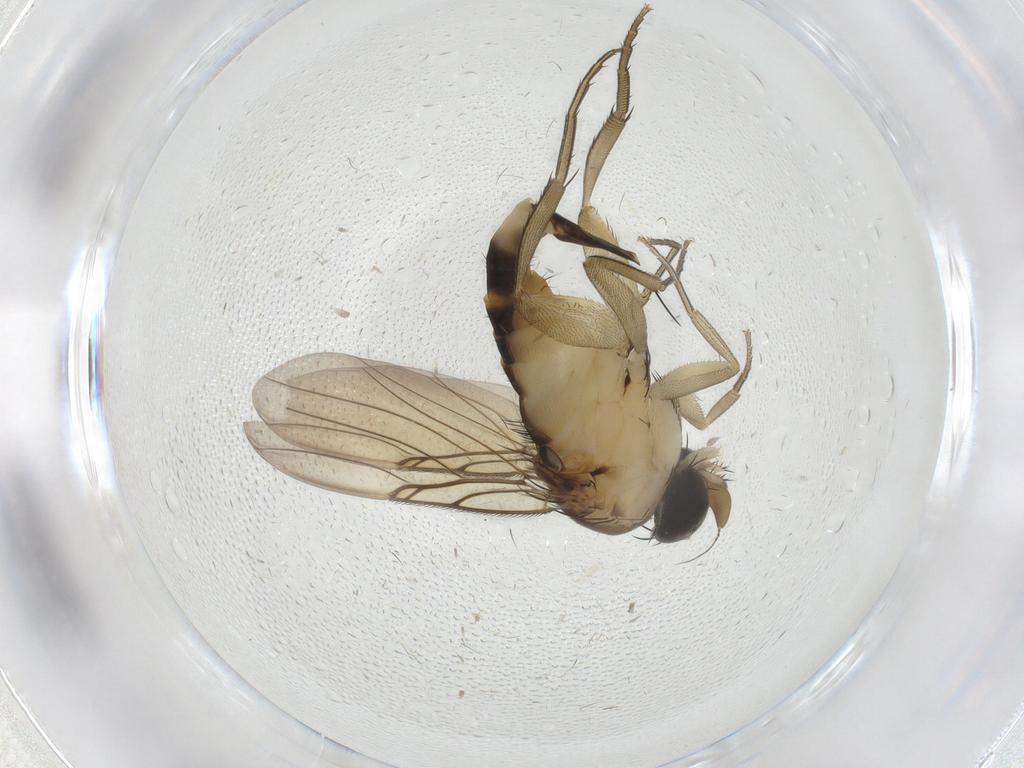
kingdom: Animalia
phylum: Arthropoda
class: Insecta
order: Diptera
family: Phoridae
